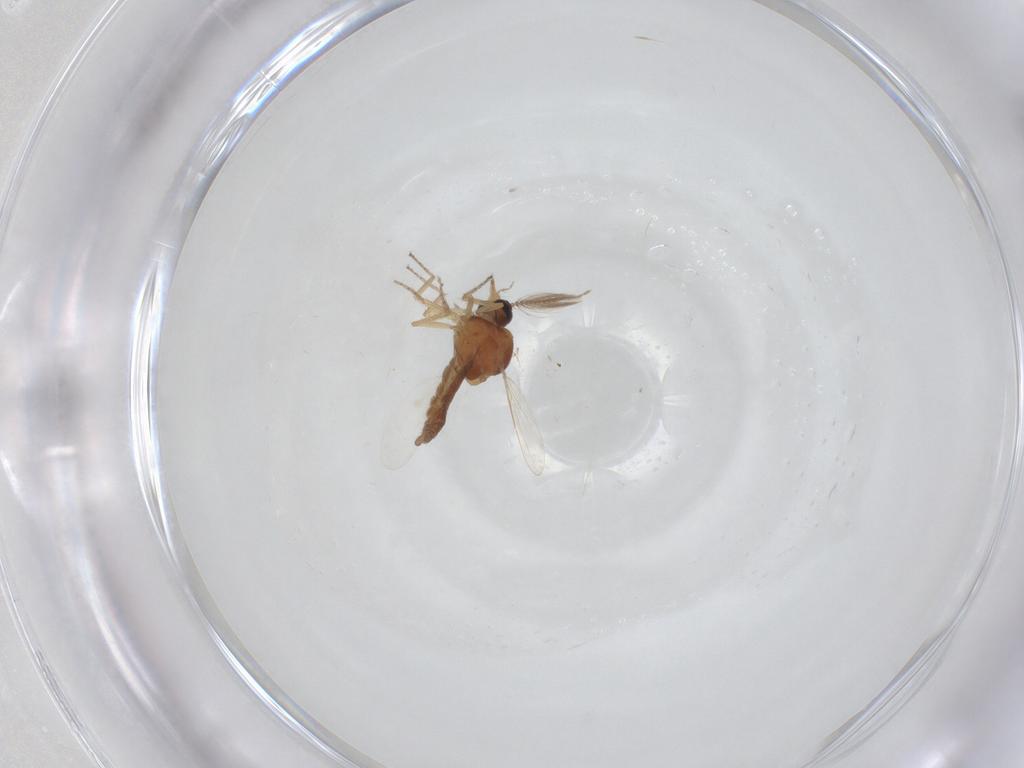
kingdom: Animalia
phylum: Arthropoda
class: Insecta
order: Diptera
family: Ceratopogonidae
